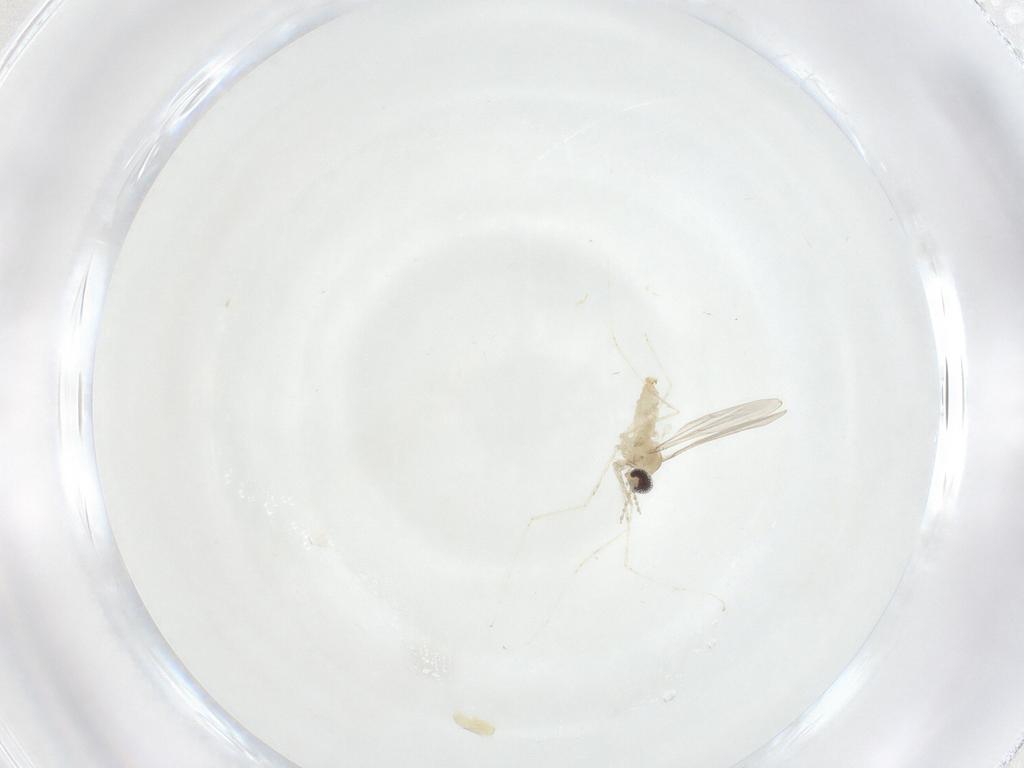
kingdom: Animalia
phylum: Arthropoda
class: Insecta
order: Diptera
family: Cecidomyiidae
